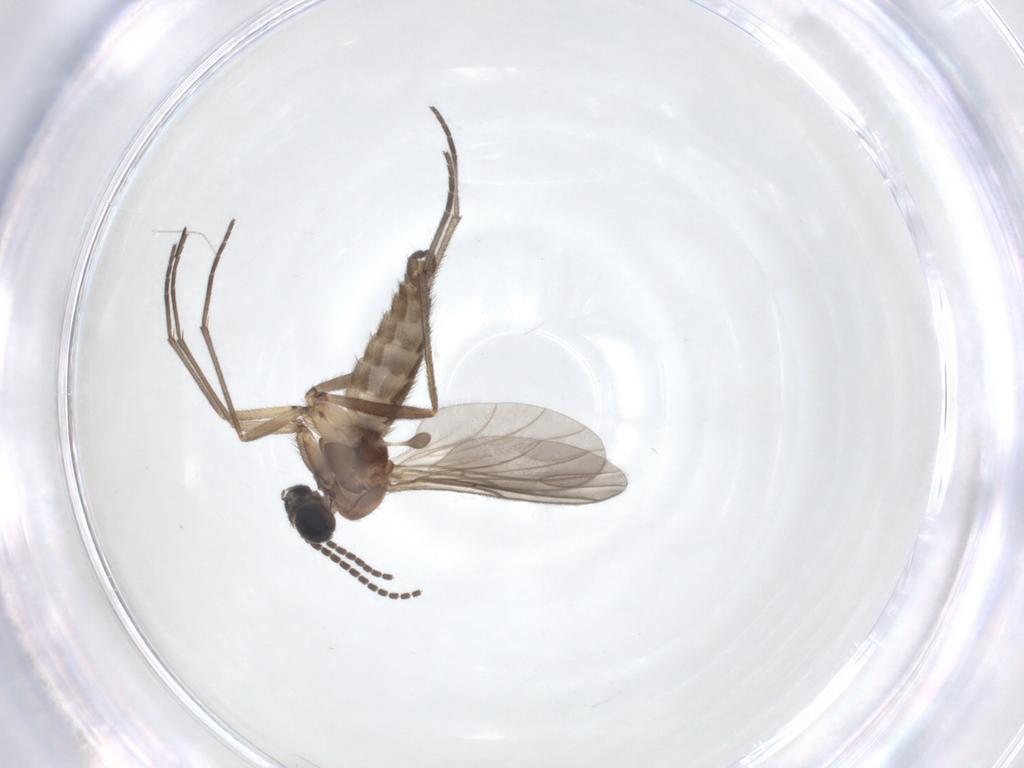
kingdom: Animalia
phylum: Arthropoda
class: Insecta
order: Diptera
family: Sciaridae
